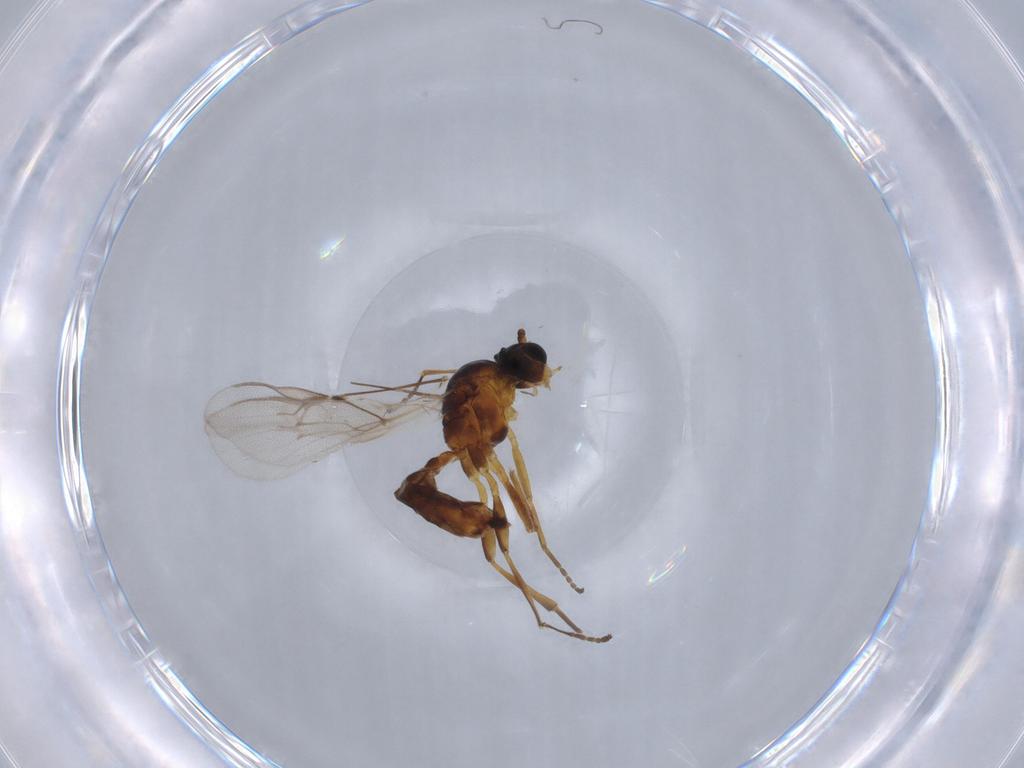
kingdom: Animalia
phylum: Arthropoda
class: Insecta
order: Hymenoptera
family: Braconidae
